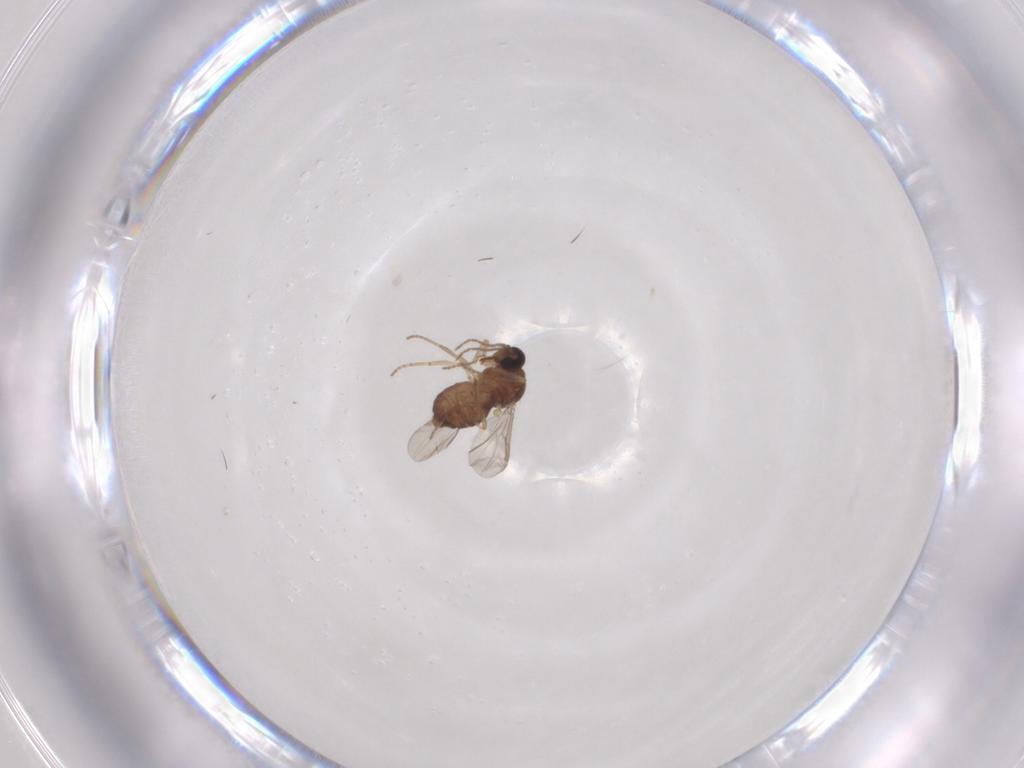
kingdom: Animalia
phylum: Arthropoda
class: Insecta
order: Diptera
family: Ceratopogonidae
